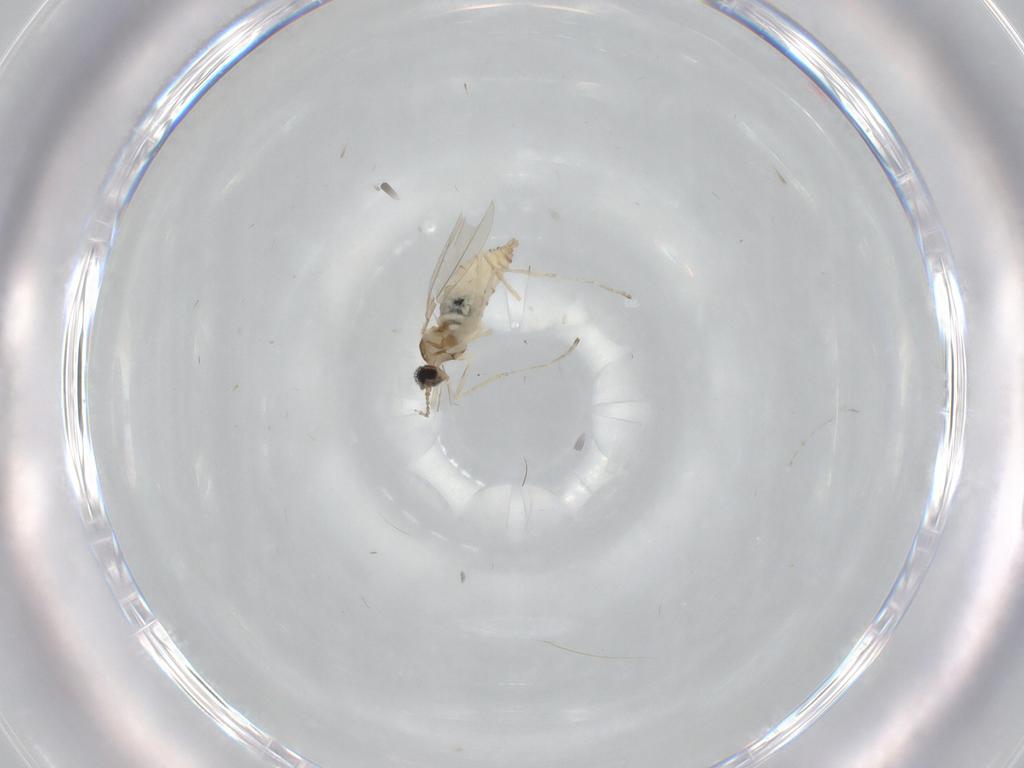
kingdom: Animalia
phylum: Arthropoda
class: Insecta
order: Diptera
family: Cecidomyiidae
